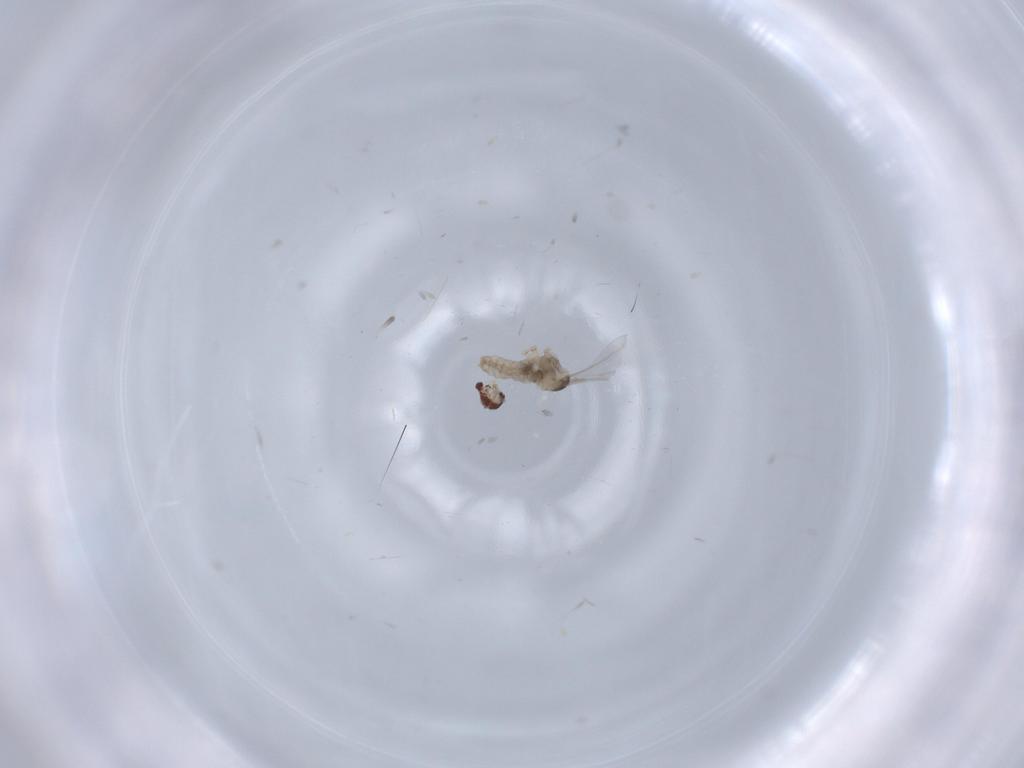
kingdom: Animalia
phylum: Arthropoda
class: Insecta
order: Diptera
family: Cecidomyiidae
